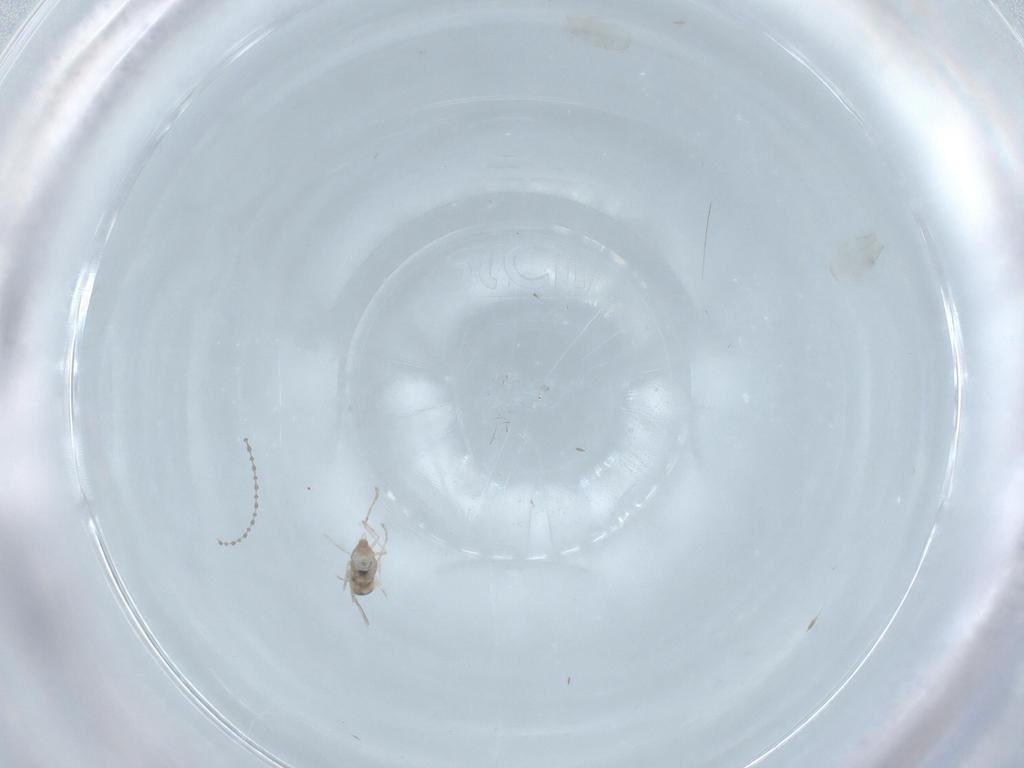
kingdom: Animalia
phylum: Arthropoda
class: Insecta
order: Diptera
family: Cecidomyiidae
